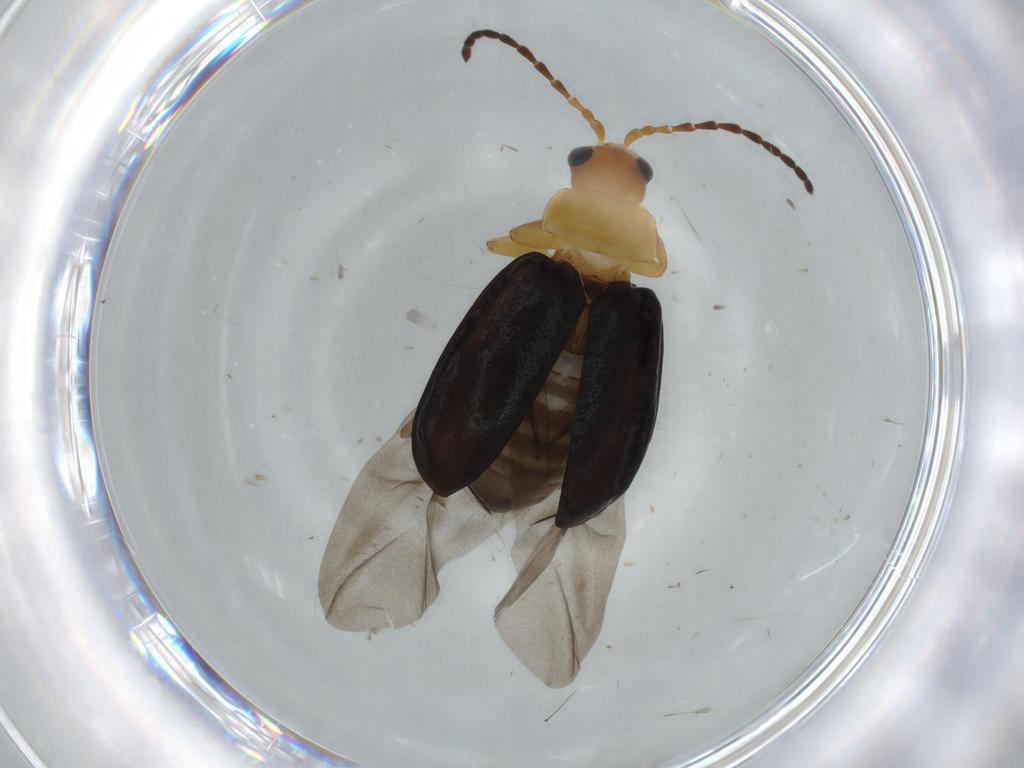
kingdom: Animalia
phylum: Arthropoda
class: Insecta
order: Coleoptera
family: Chrysomelidae
